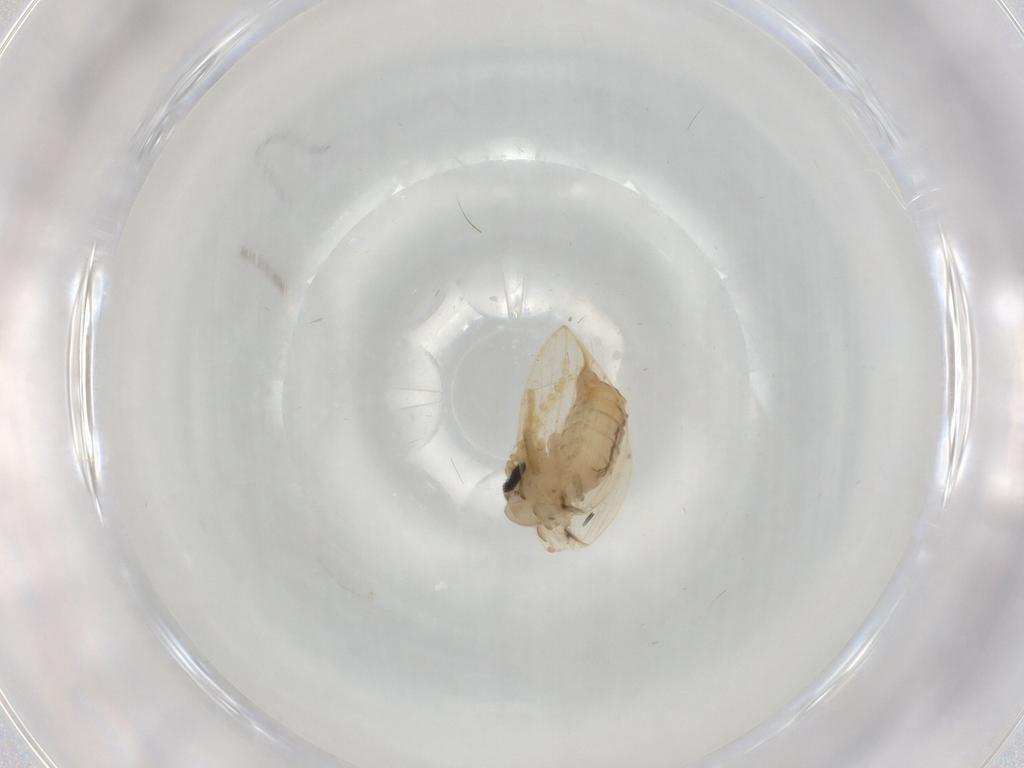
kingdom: Animalia
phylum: Arthropoda
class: Insecta
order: Diptera
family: Psychodidae
